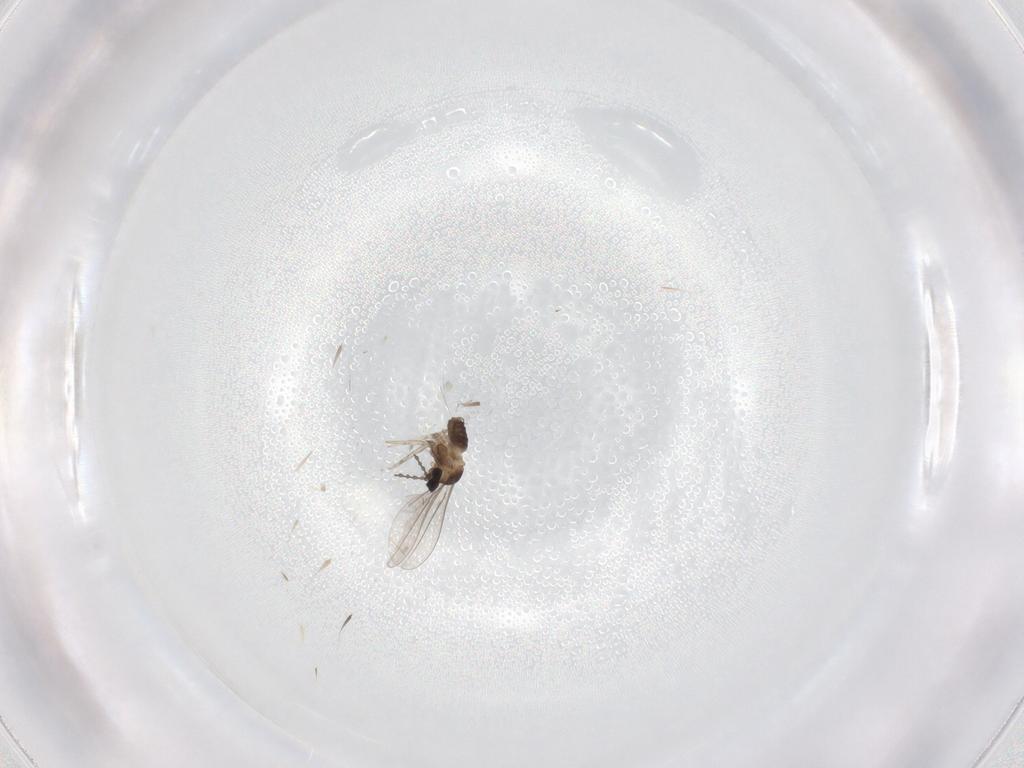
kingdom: Animalia
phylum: Arthropoda
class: Insecta
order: Diptera
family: Cecidomyiidae
